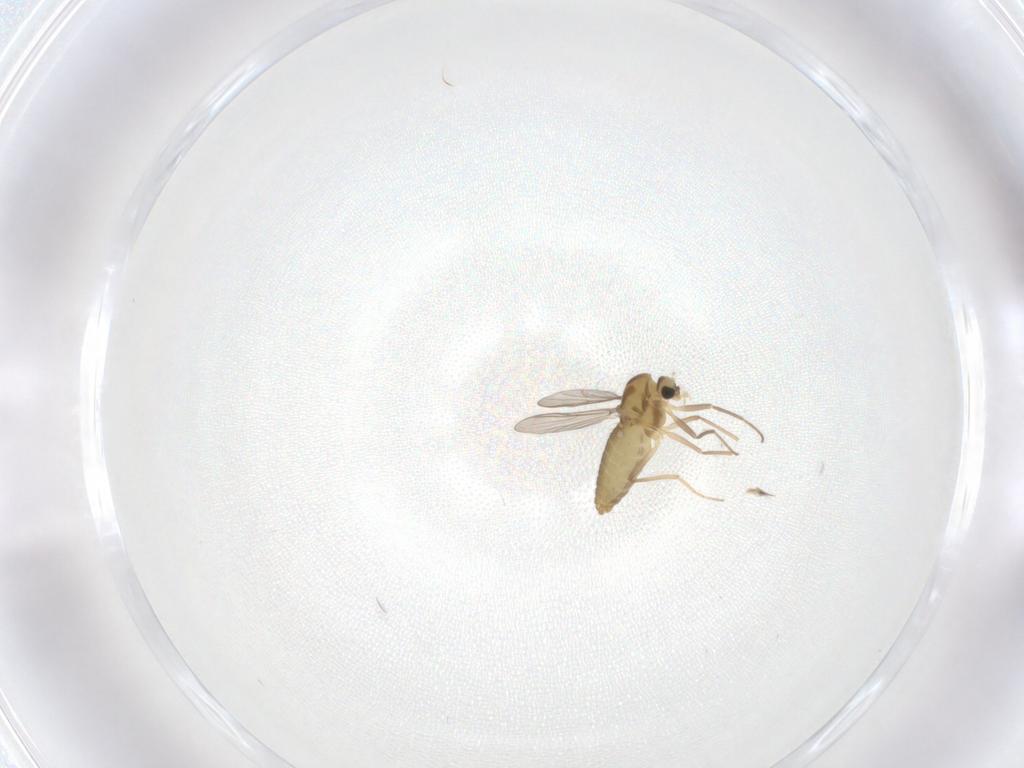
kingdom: Animalia
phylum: Arthropoda
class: Insecta
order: Diptera
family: Chironomidae
